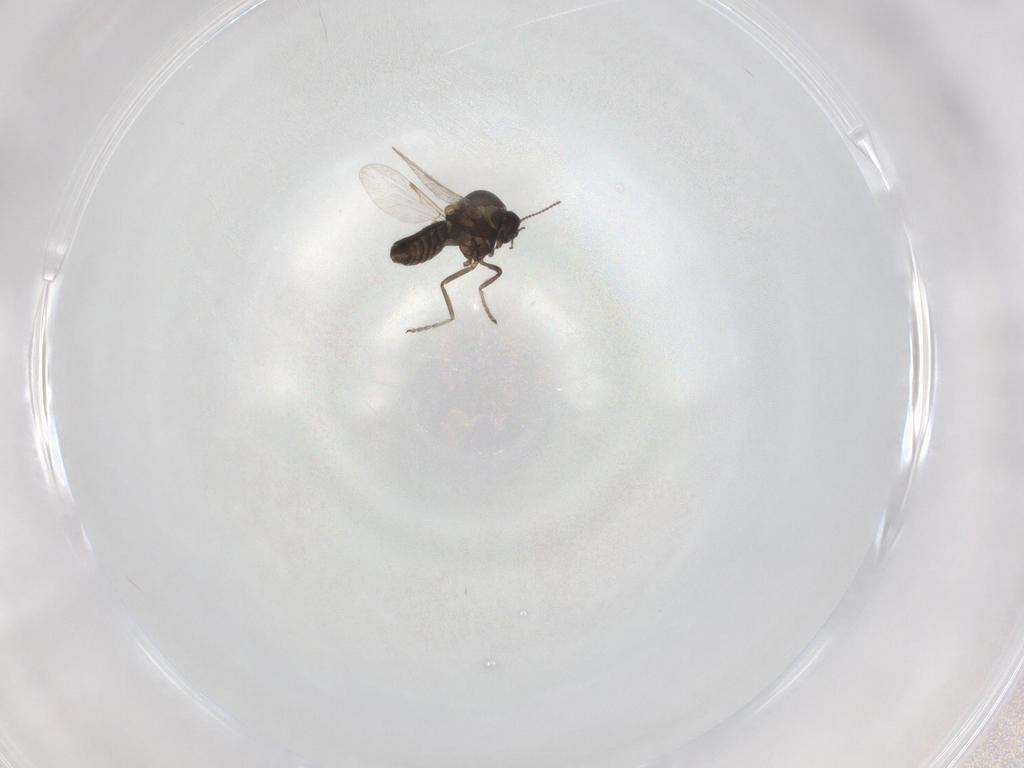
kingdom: Animalia
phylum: Arthropoda
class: Insecta
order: Diptera
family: Ceratopogonidae
